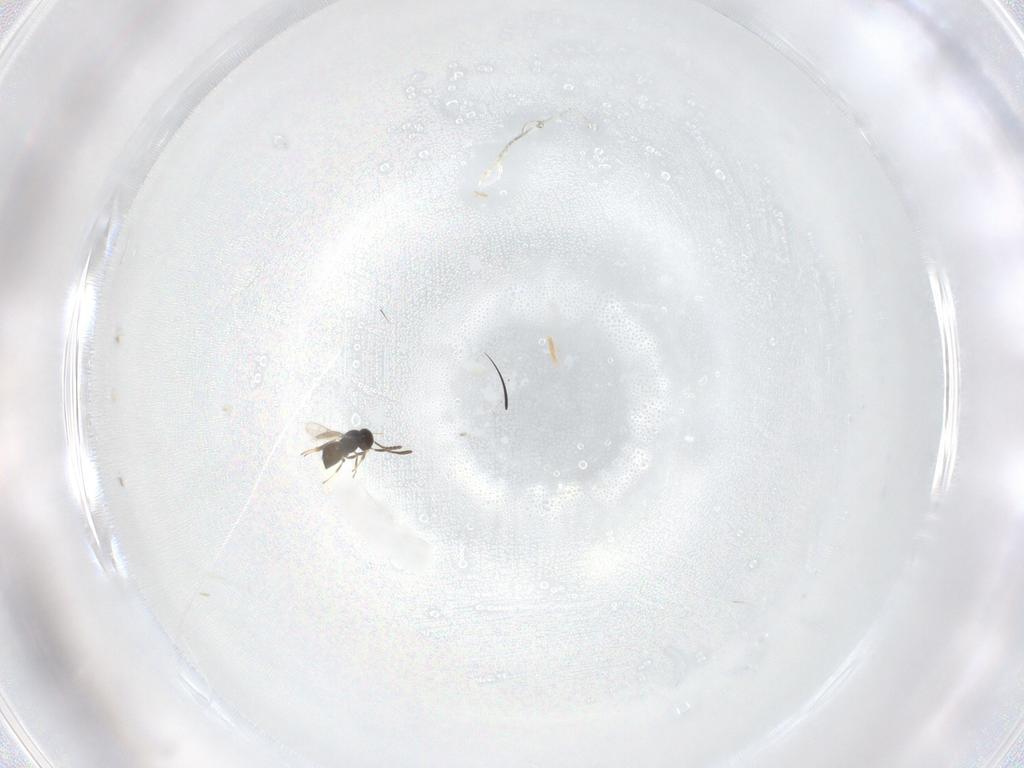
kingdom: Animalia
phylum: Arthropoda
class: Insecta
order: Hymenoptera
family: Scelionidae
